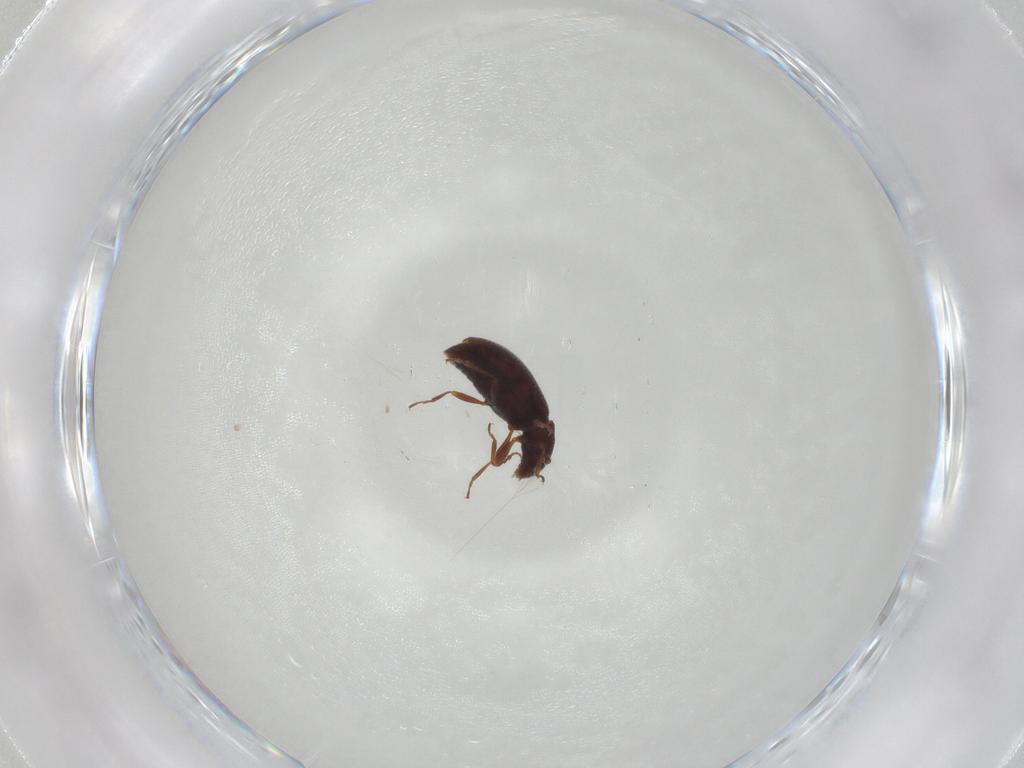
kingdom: Animalia
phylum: Arthropoda
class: Insecta
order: Coleoptera
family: Latridiidae
